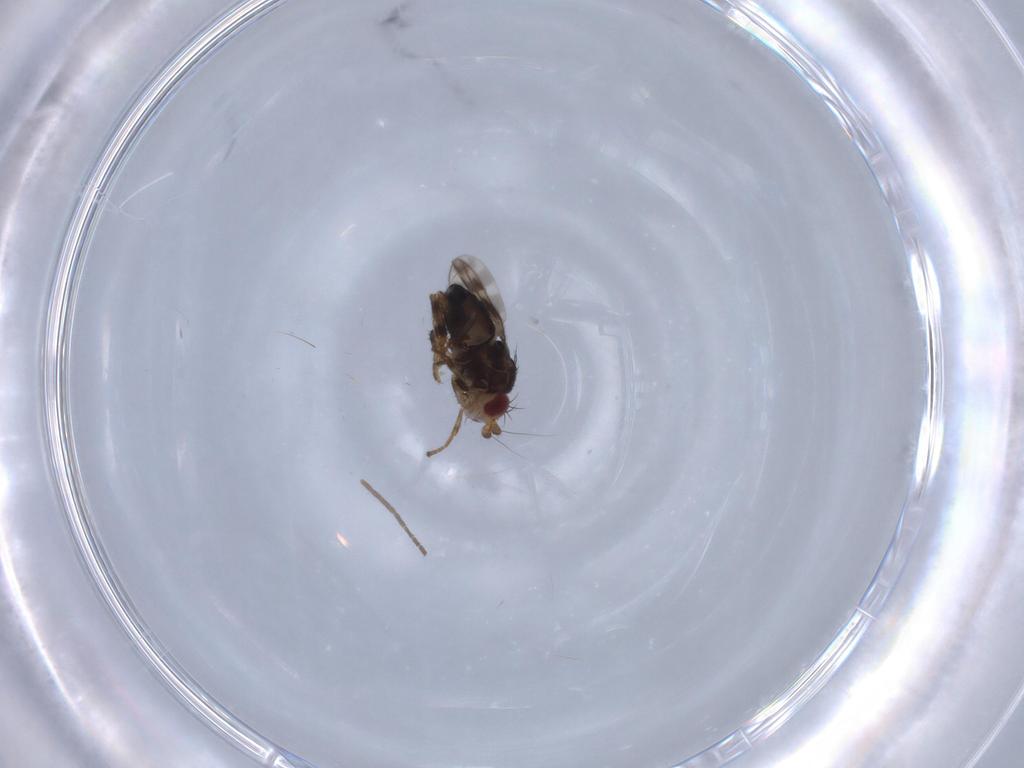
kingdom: Animalia
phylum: Arthropoda
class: Insecta
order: Diptera
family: Sphaeroceridae
